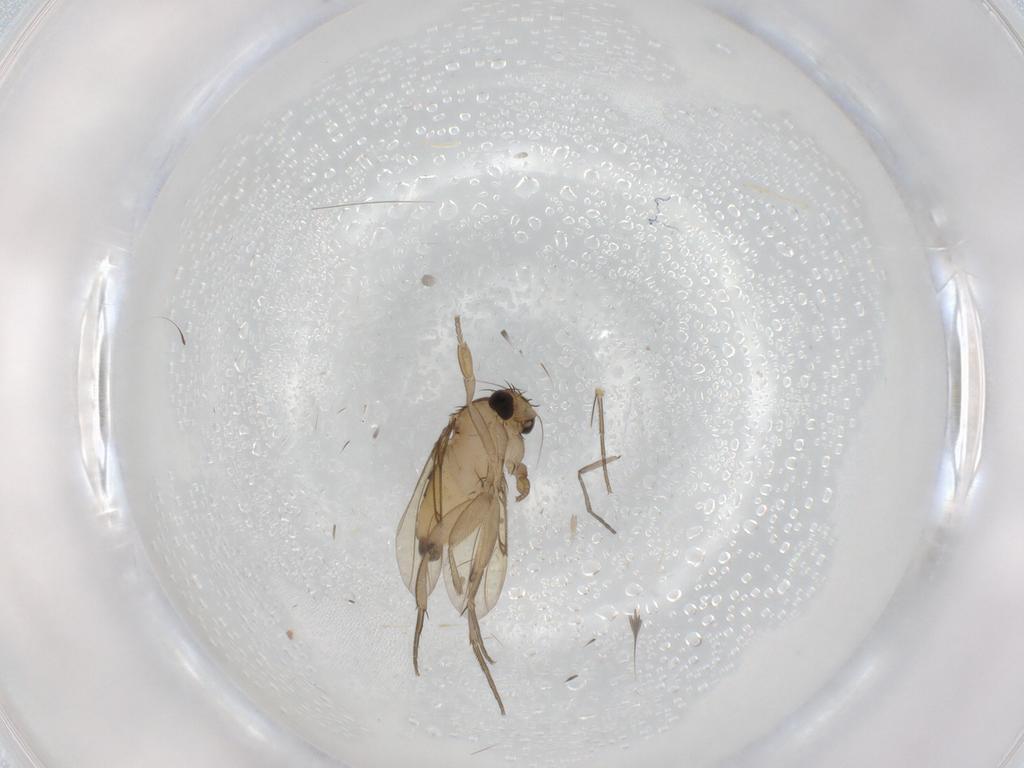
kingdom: Animalia
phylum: Arthropoda
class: Insecta
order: Diptera
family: Phoridae
